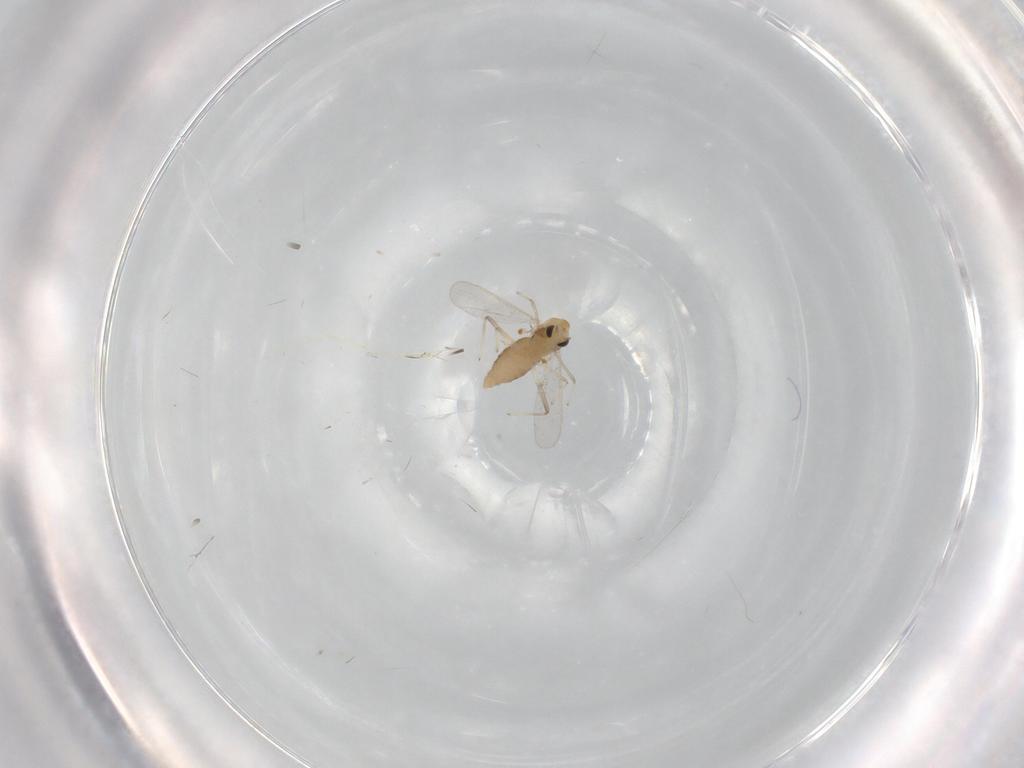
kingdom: Animalia
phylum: Arthropoda
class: Insecta
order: Diptera
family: Chironomidae
